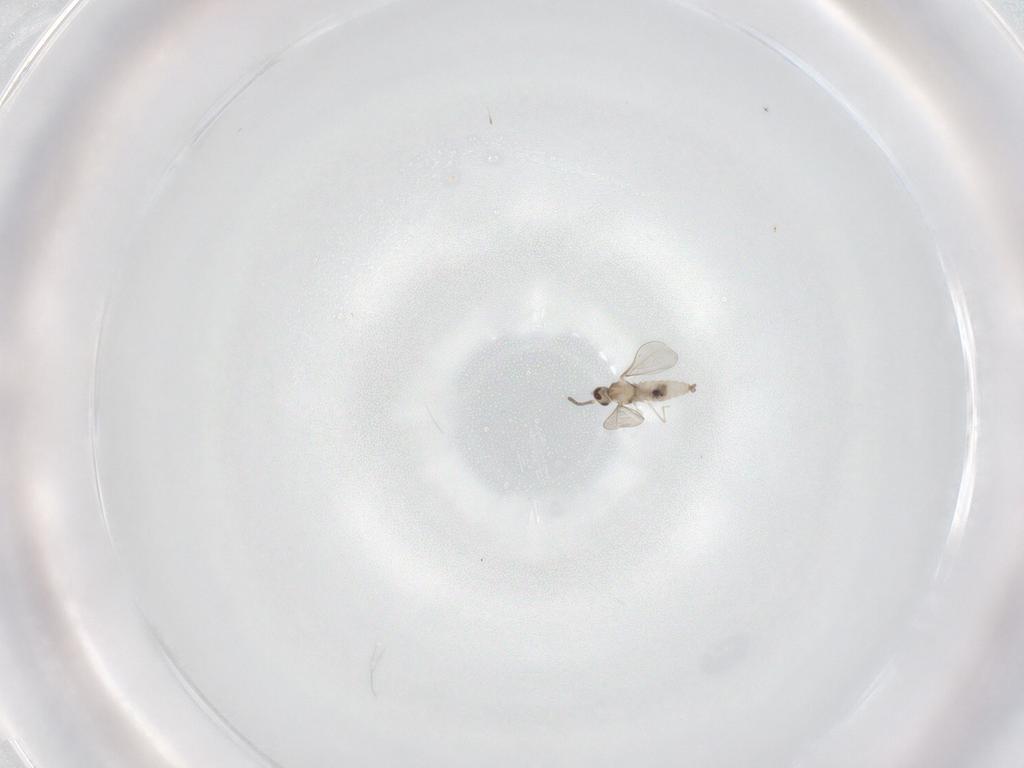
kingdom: Animalia
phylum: Arthropoda
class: Insecta
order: Diptera
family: Cecidomyiidae
